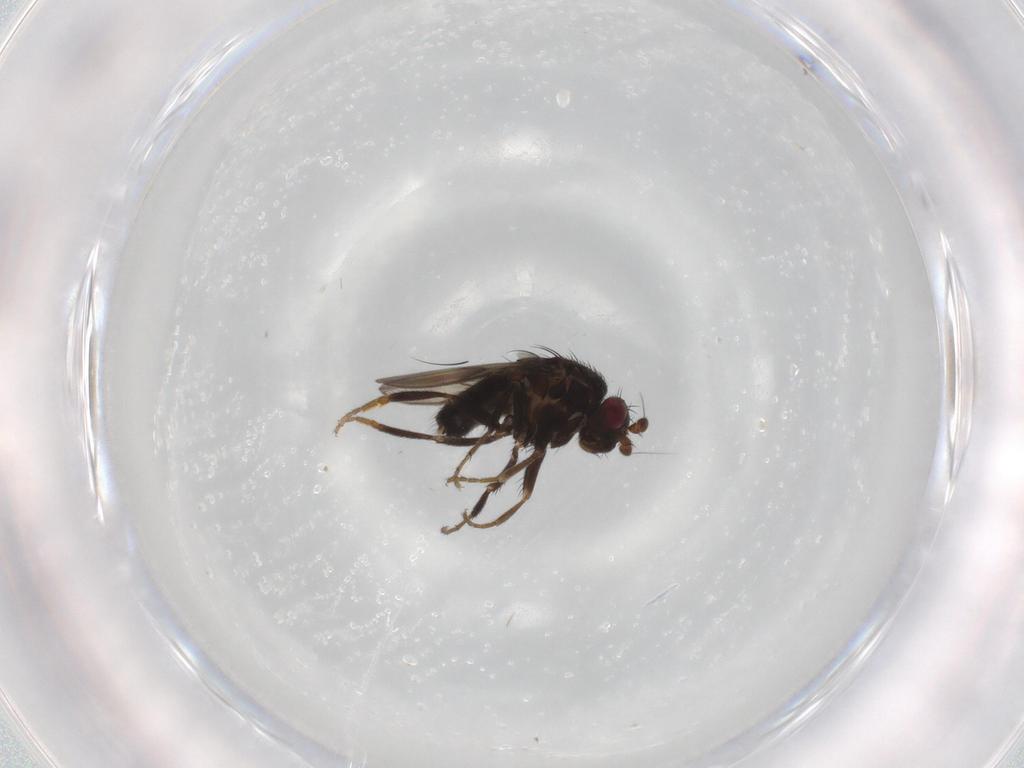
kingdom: Animalia
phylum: Arthropoda
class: Insecta
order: Diptera
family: Sphaeroceridae
